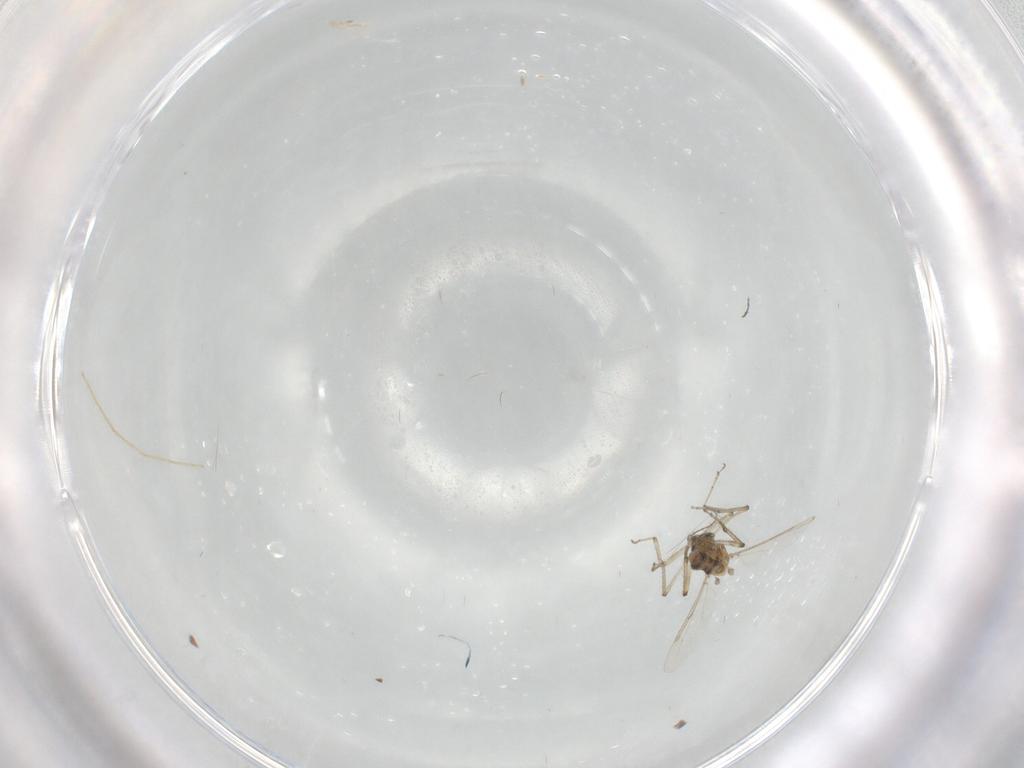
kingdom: Animalia
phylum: Arthropoda
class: Insecta
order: Diptera
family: Ceratopogonidae
